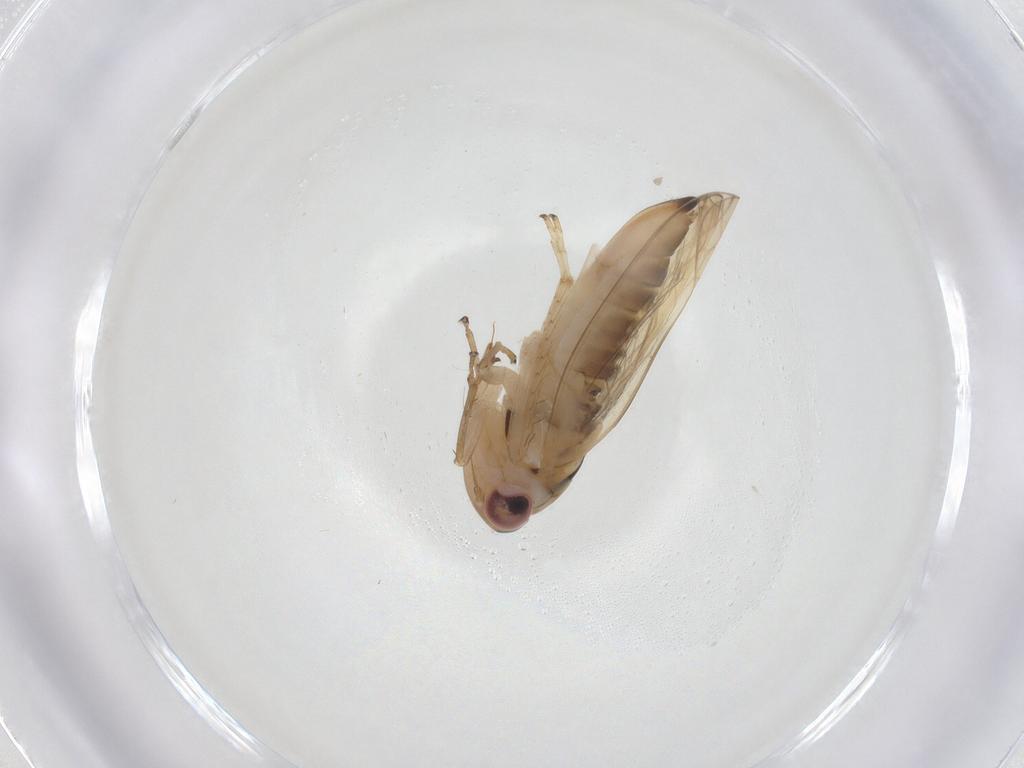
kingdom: Animalia
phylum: Arthropoda
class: Insecta
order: Hemiptera
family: Cicadellidae
